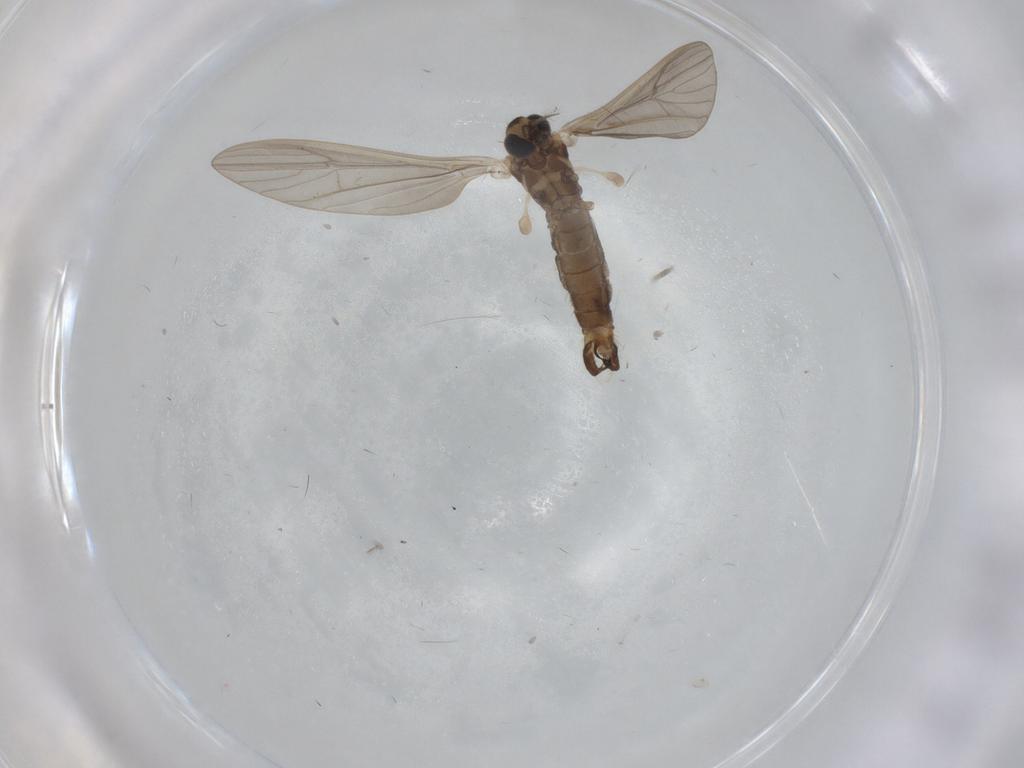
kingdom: Animalia
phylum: Arthropoda
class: Insecta
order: Diptera
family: Limoniidae
